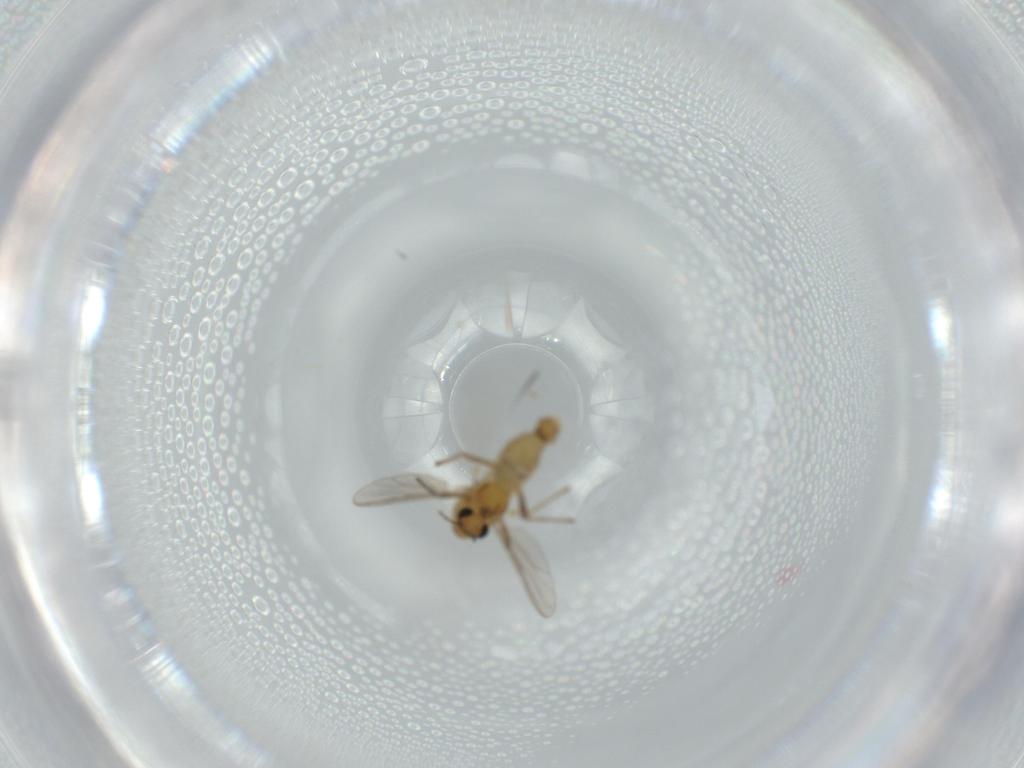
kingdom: Animalia
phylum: Arthropoda
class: Insecta
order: Diptera
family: Chironomidae
